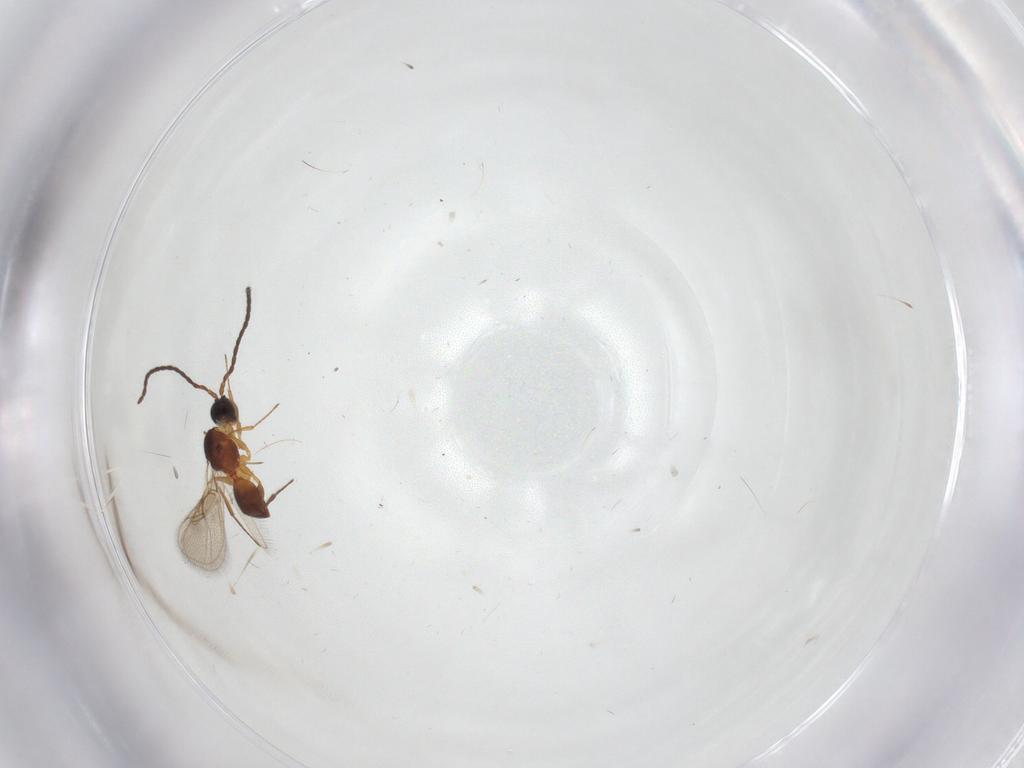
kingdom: Animalia
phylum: Arthropoda
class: Insecta
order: Hymenoptera
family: Figitidae
